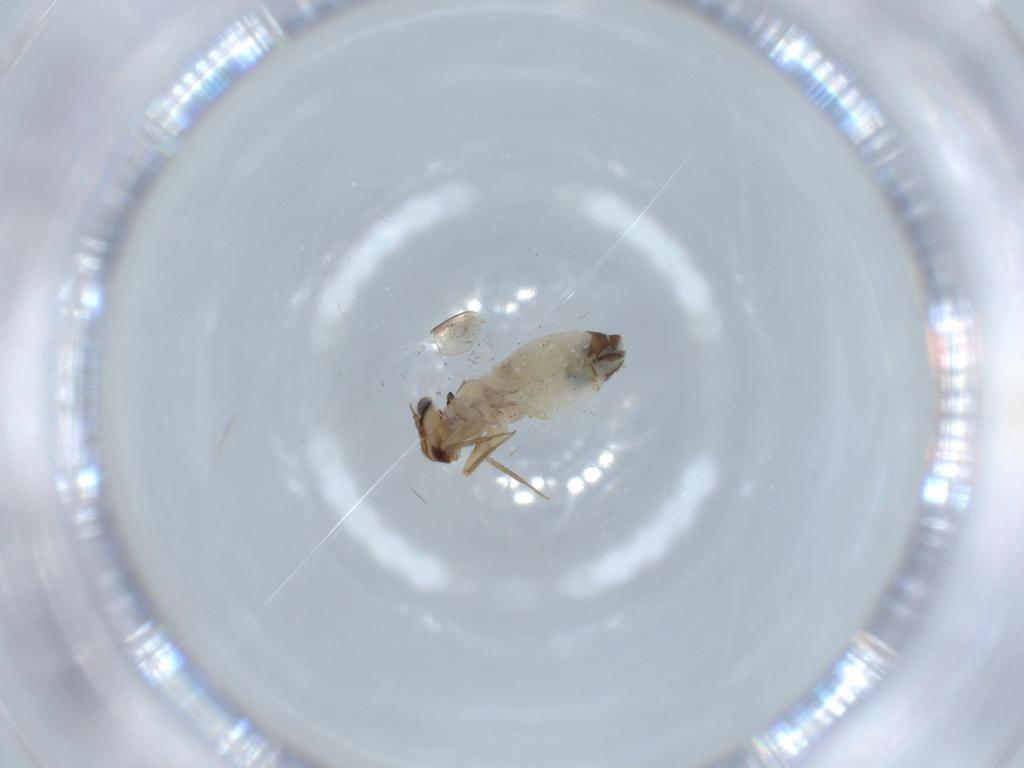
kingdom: Animalia
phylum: Arthropoda
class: Insecta
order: Psocodea
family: Lepidopsocidae
